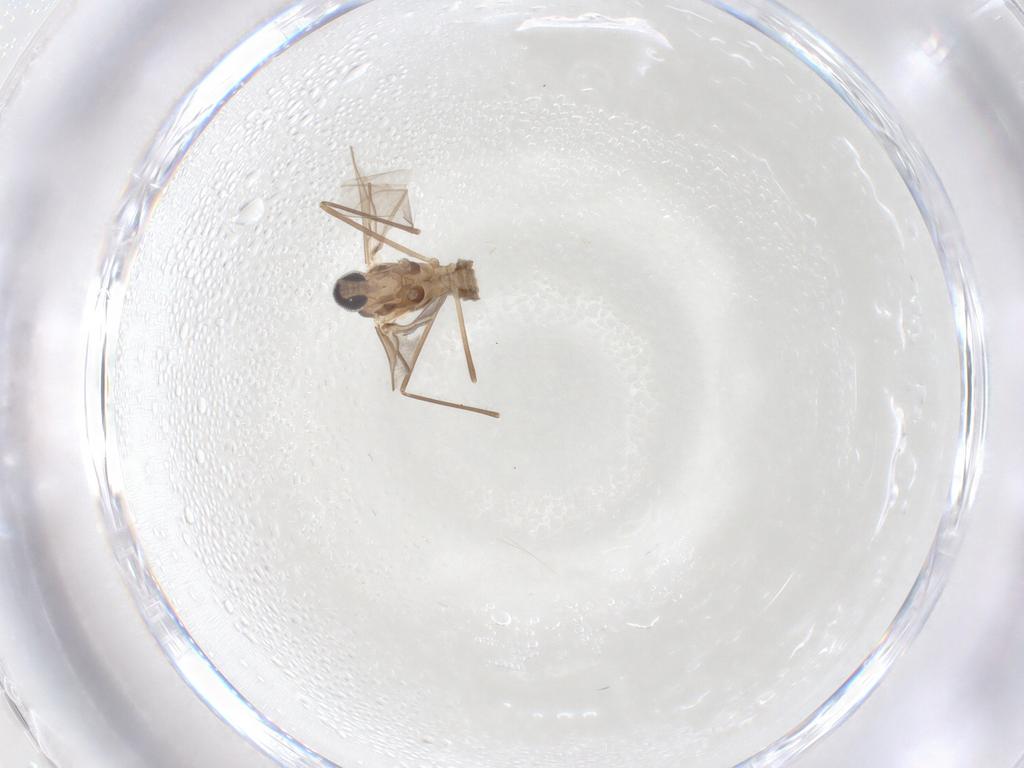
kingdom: Animalia
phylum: Arthropoda
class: Insecta
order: Diptera
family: Cecidomyiidae
